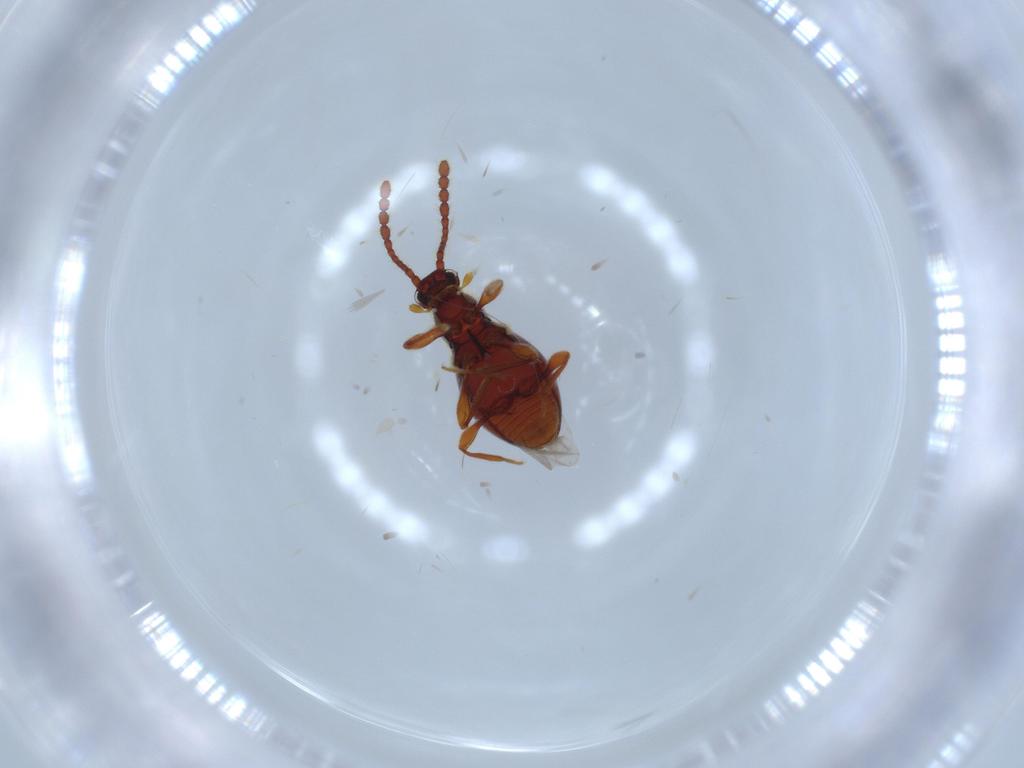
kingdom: Animalia
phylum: Arthropoda
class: Insecta
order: Coleoptera
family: Staphylinidae
